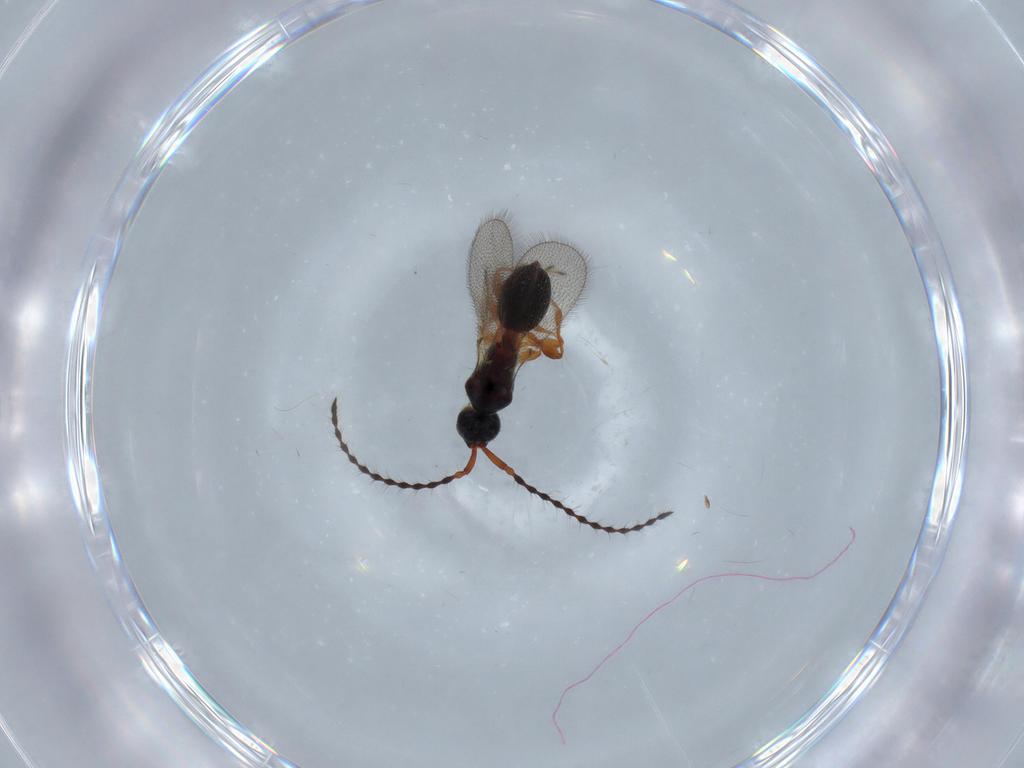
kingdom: Animalia
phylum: Arthropoda
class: Insecta
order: Hymenoptera
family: Diapriidae
